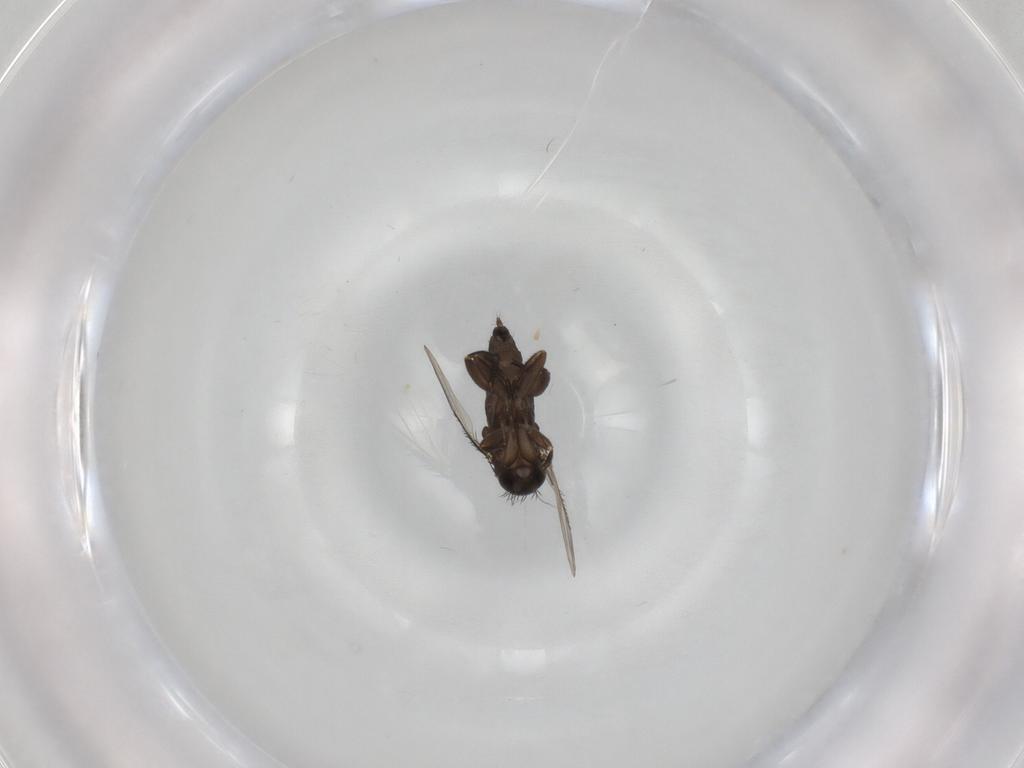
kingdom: Animalia
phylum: Arthropoda
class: Insecta
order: Diptera
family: Phoridae
